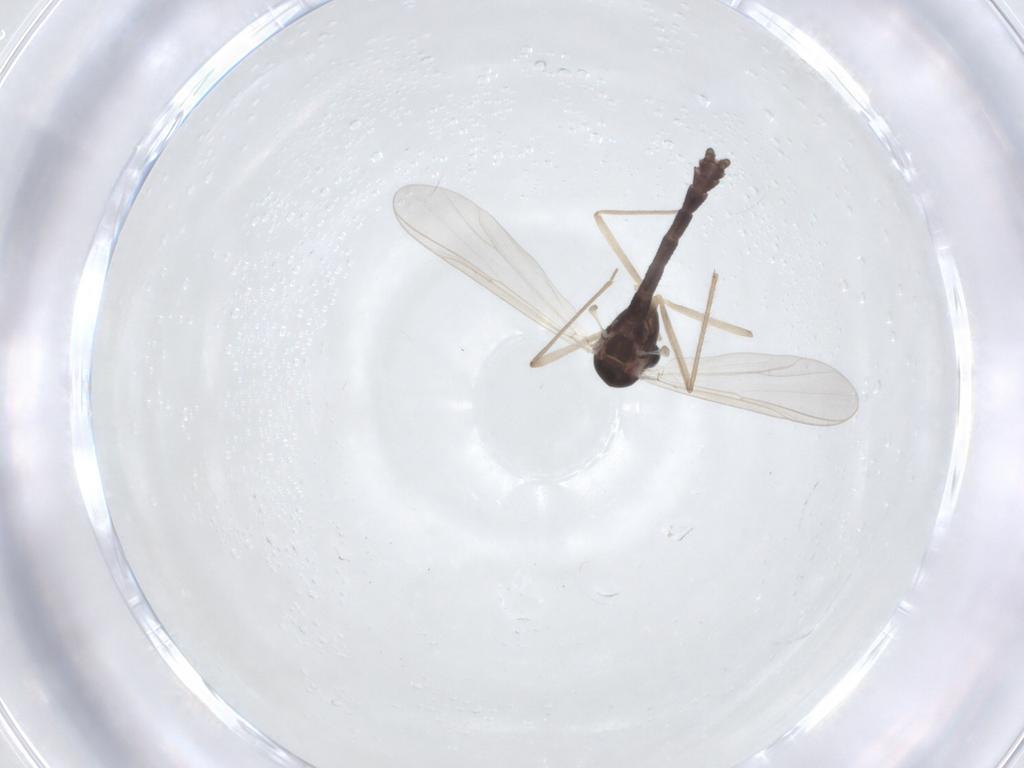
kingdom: Animalia
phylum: Arthropoda
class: Insecta
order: Diptera
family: Chironomidae
